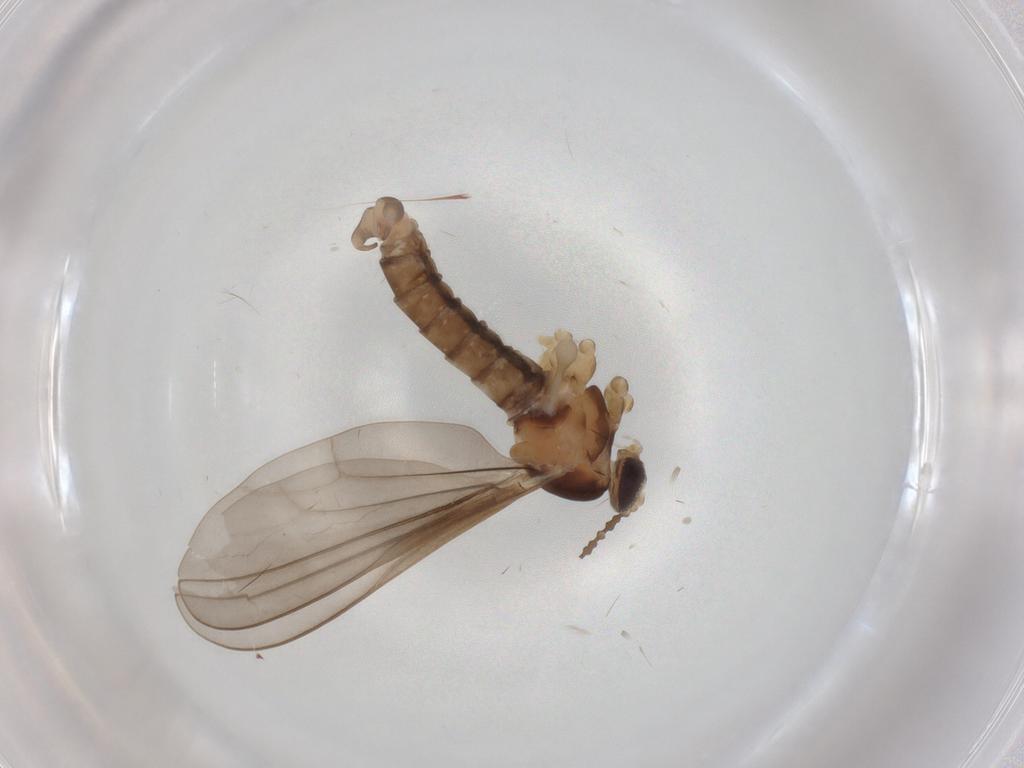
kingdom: Animalia
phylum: Arthropoda
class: Insecta
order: Diptera
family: Cecidomyiidae
